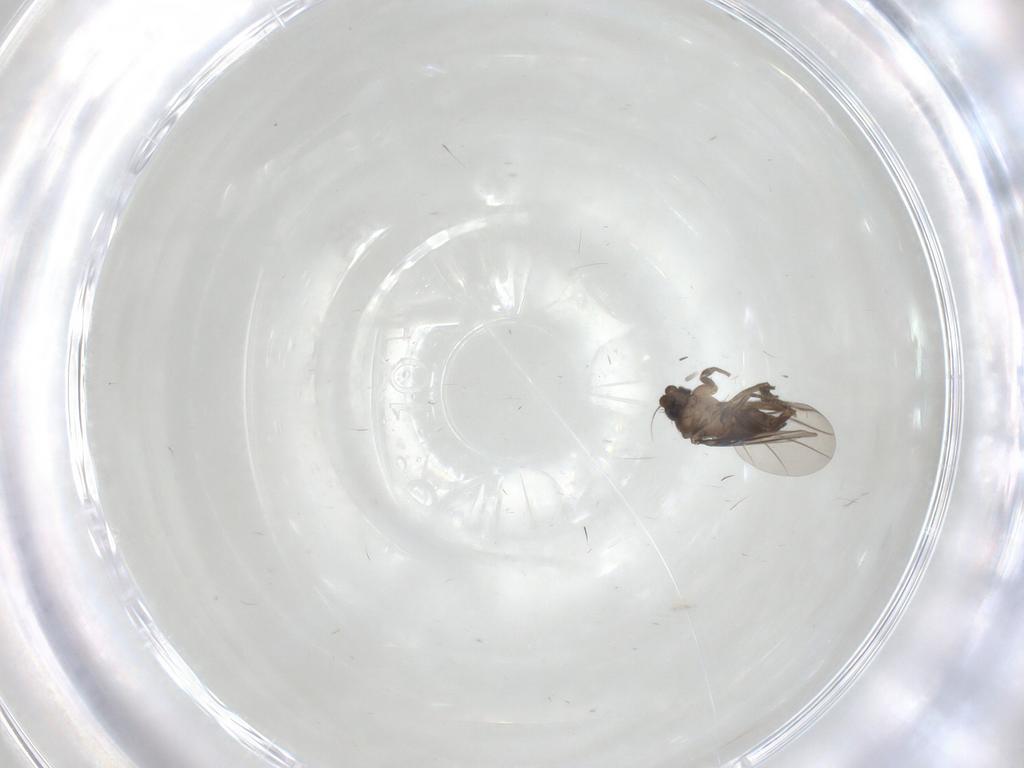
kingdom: Animalia
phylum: Arthropoda
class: Insecta
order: Diptera
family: Phoridae
